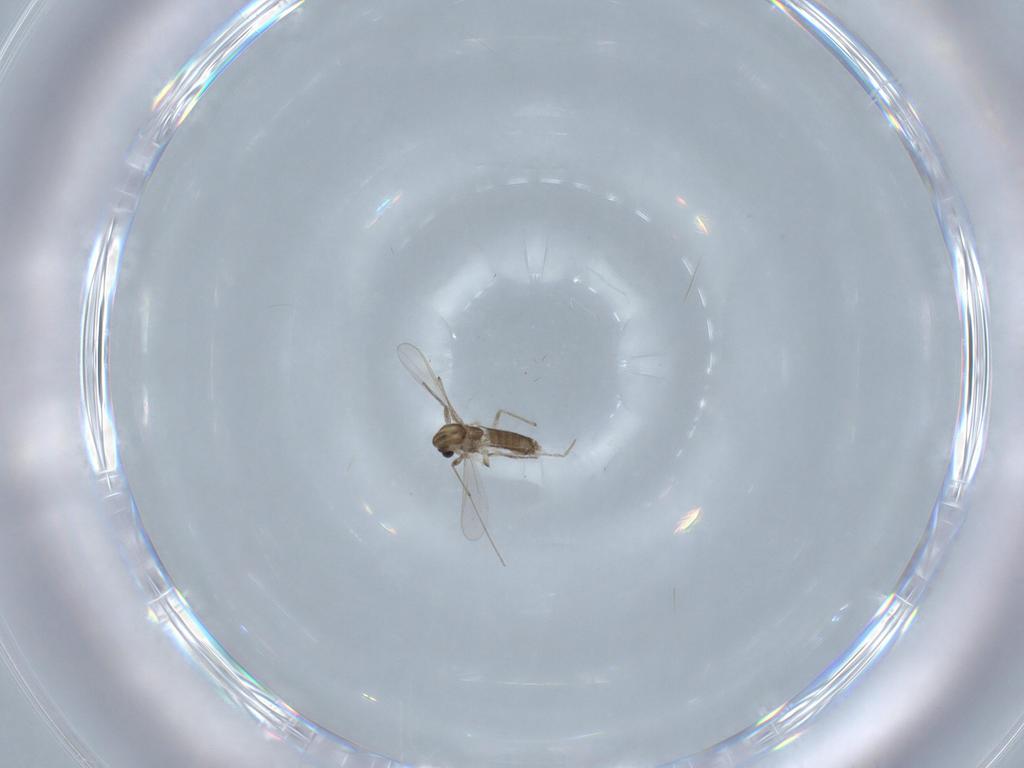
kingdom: Animalia
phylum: Arthropoda
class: Insecta
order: Diptera
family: Chironomidae
